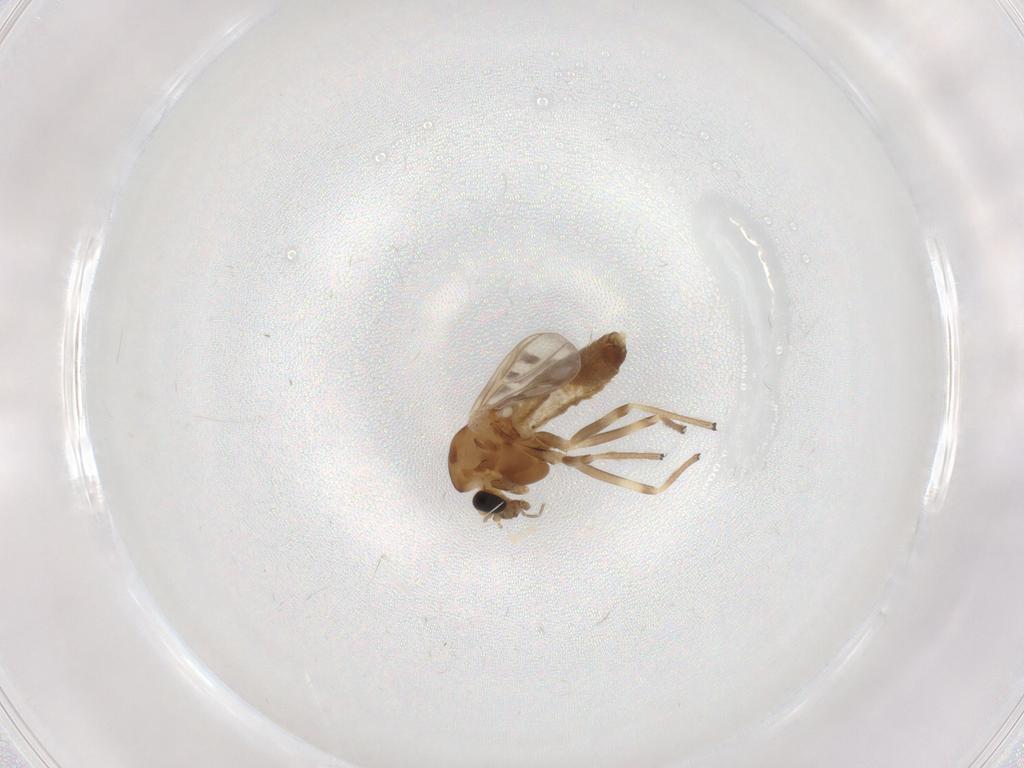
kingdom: Animalia
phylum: Arthropoda
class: Insecta
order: Diptera
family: Chironomidae
